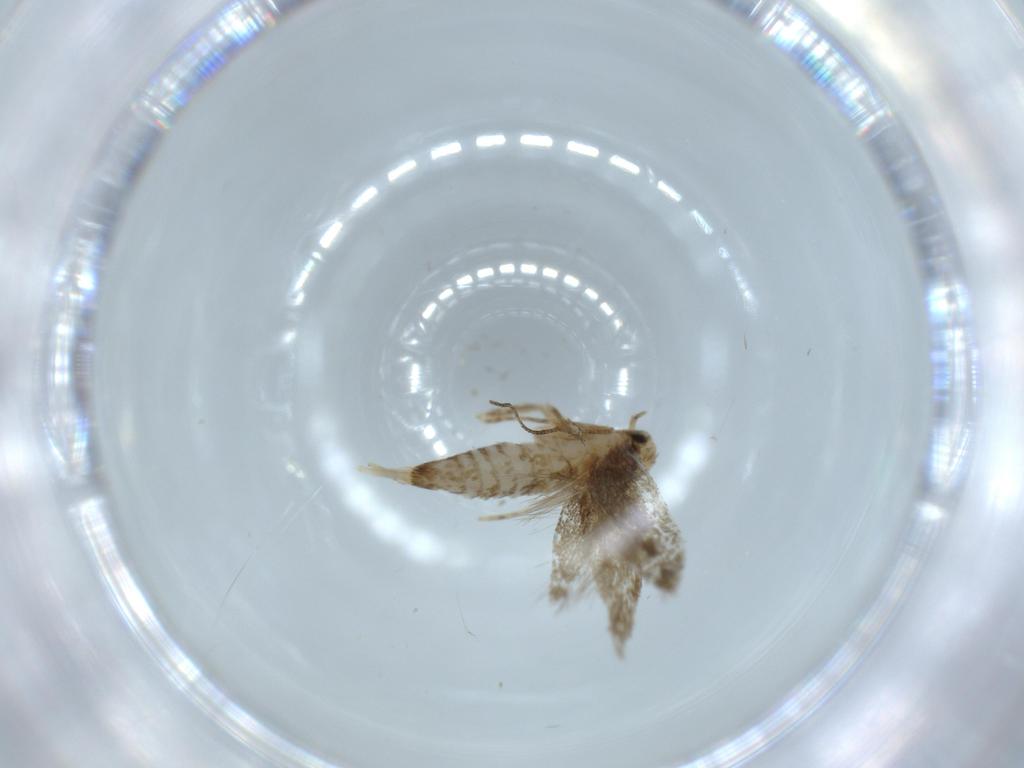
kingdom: Animalia
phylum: Arthropoda
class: Insecta
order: Lepidoptera
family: Tineidae
